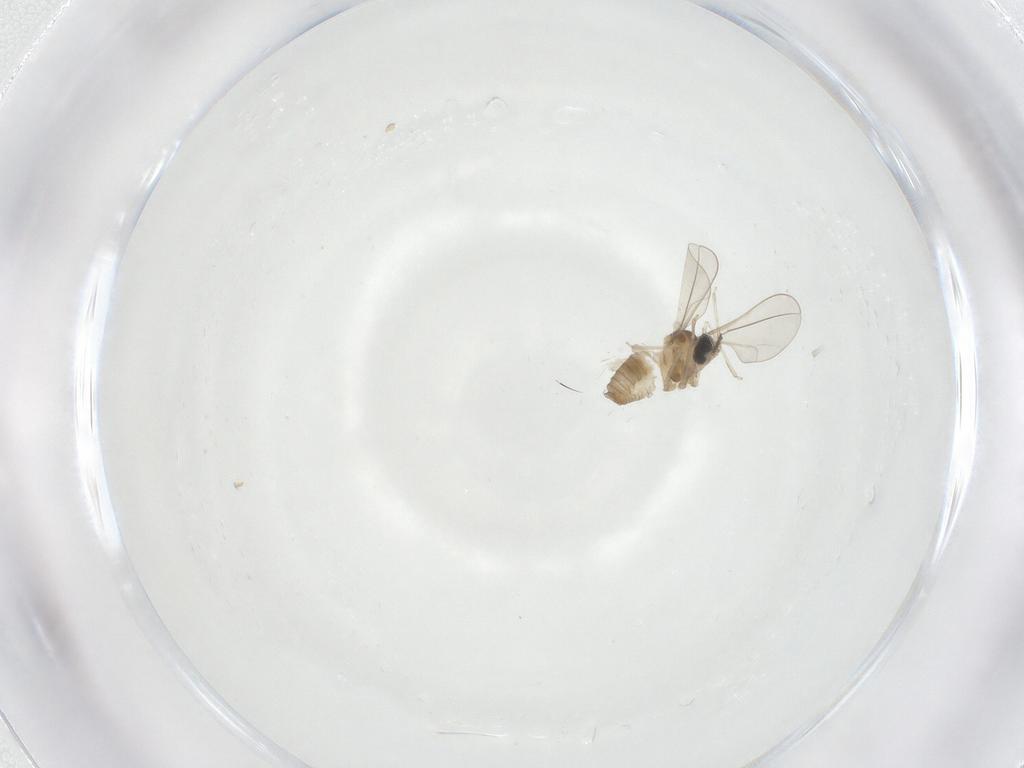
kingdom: Animalia
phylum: Arthropoda
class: Insecta
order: Diptera
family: Cecidomyiidae
